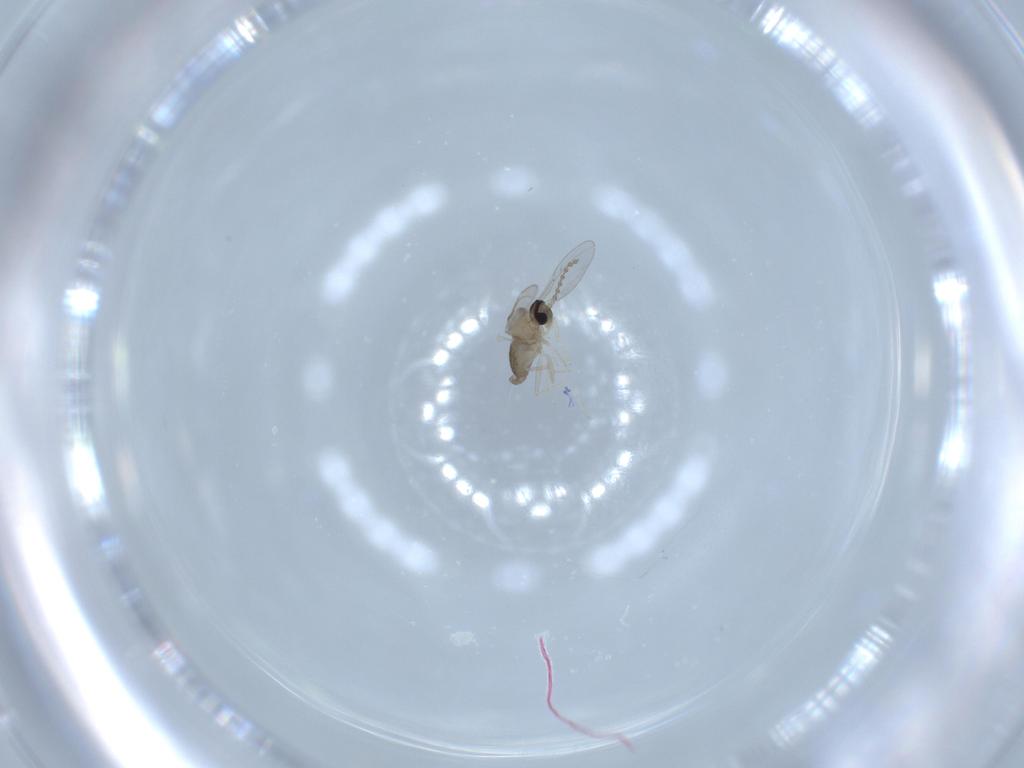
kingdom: Animalia
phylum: Arthropoda
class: Insecta
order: Diptera
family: Cecidomyiidae
